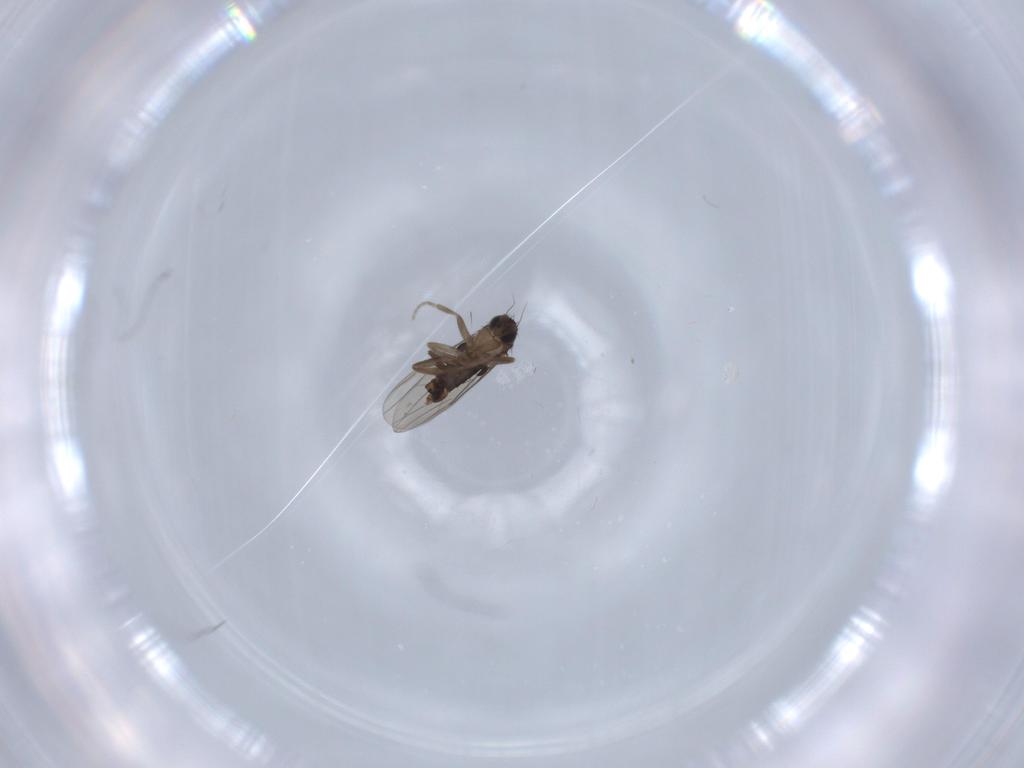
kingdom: Animalia
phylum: Arthropoda
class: Insecta
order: Diptera
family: Phoridae
